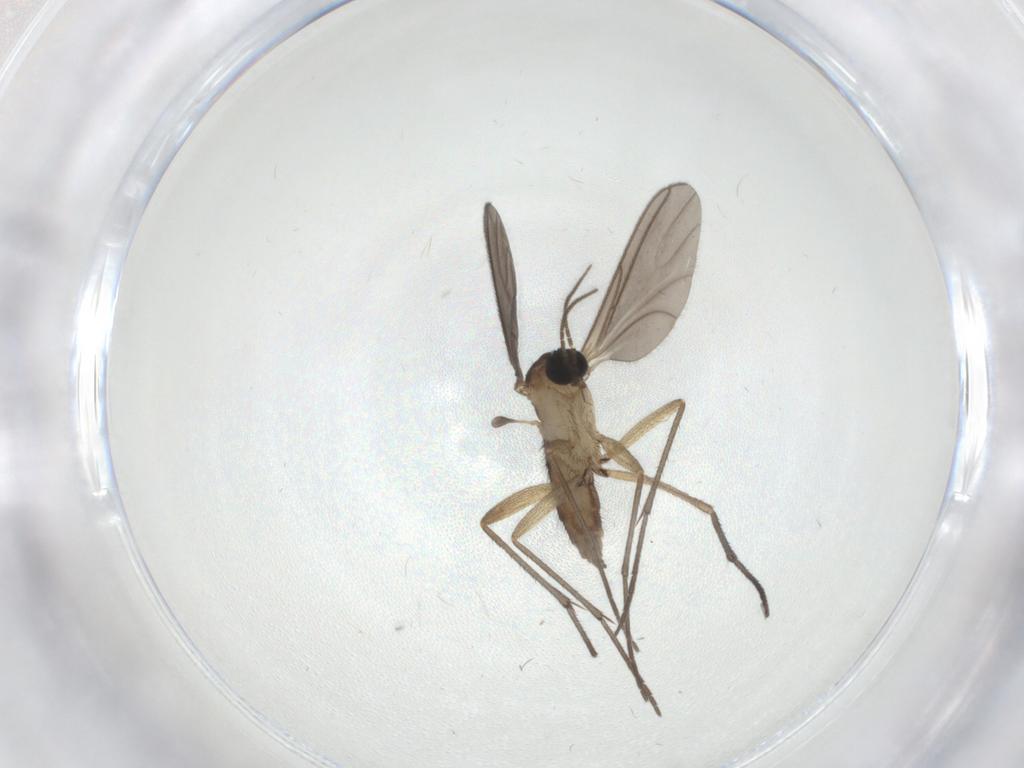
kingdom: Animalia
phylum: Arthropoda
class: Insecta
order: Diptera
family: Sciaridae
